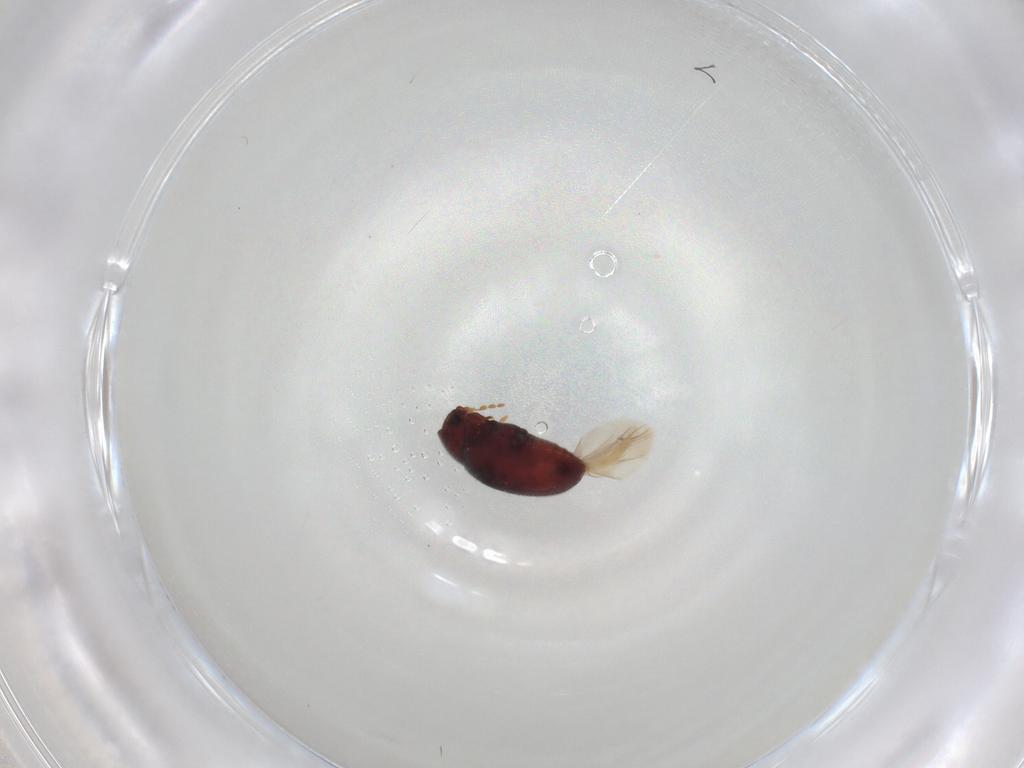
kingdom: Animalia
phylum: Arthropoda
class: Insecta
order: Coleoptera
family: Ptinidae
